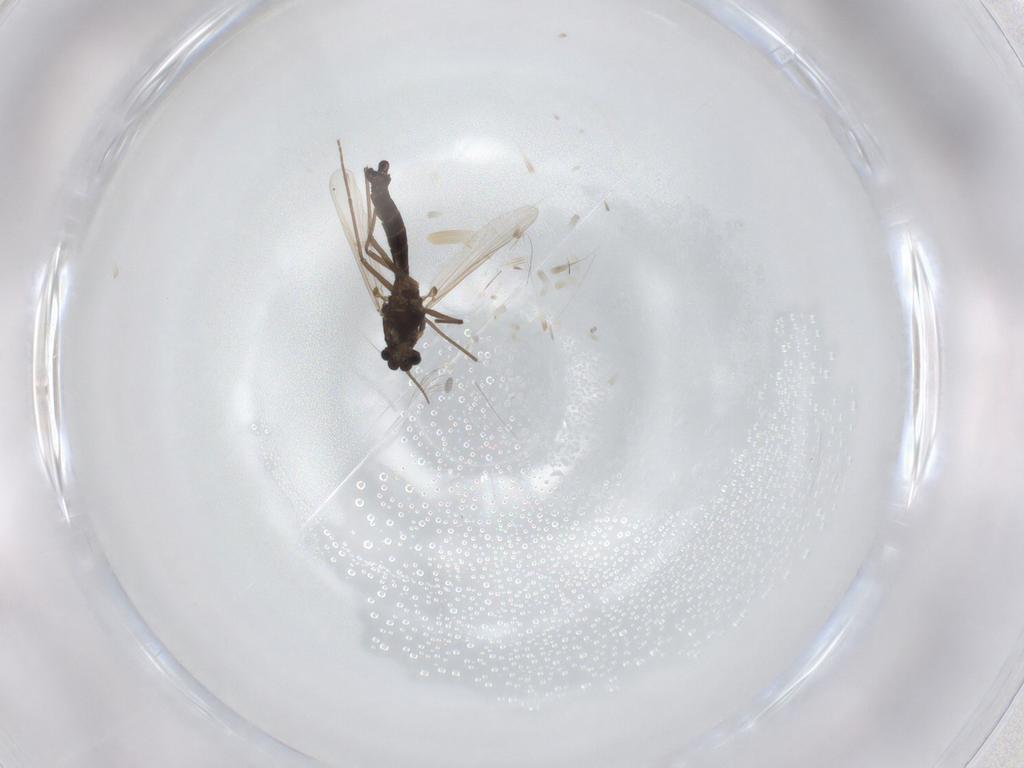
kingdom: Animalia
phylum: Arthropoda
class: Insecta
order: Diptera
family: Chironomidae
